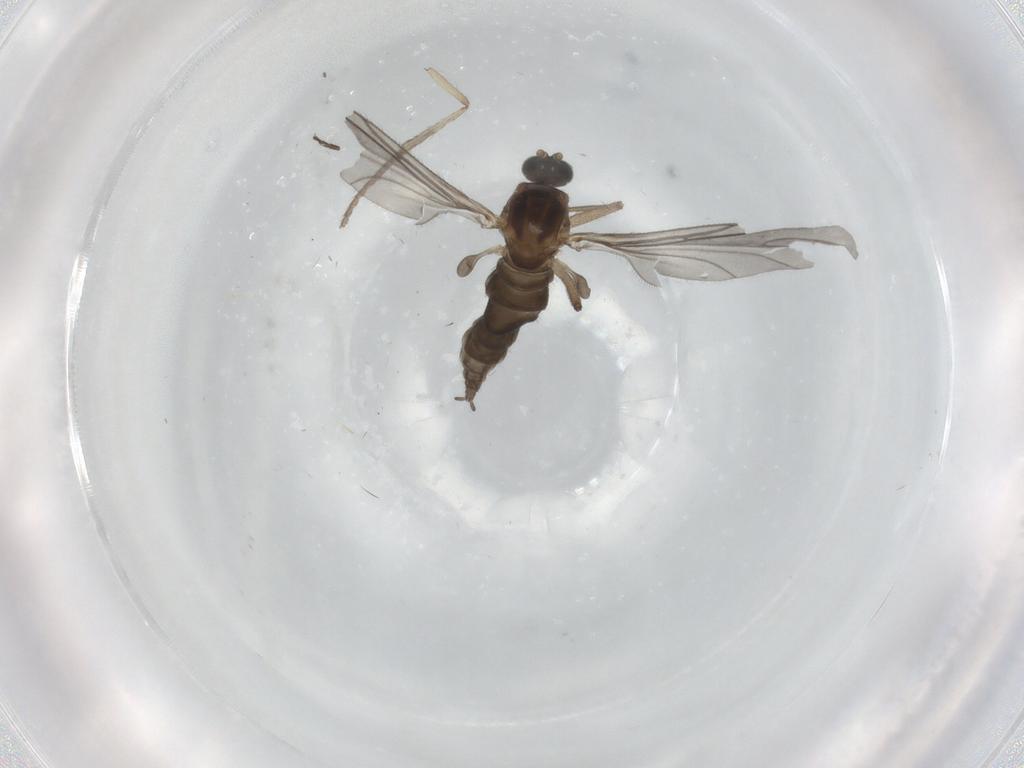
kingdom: Animalia
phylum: Arthropoda
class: Insecta
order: Diptera
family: Psychodidae
